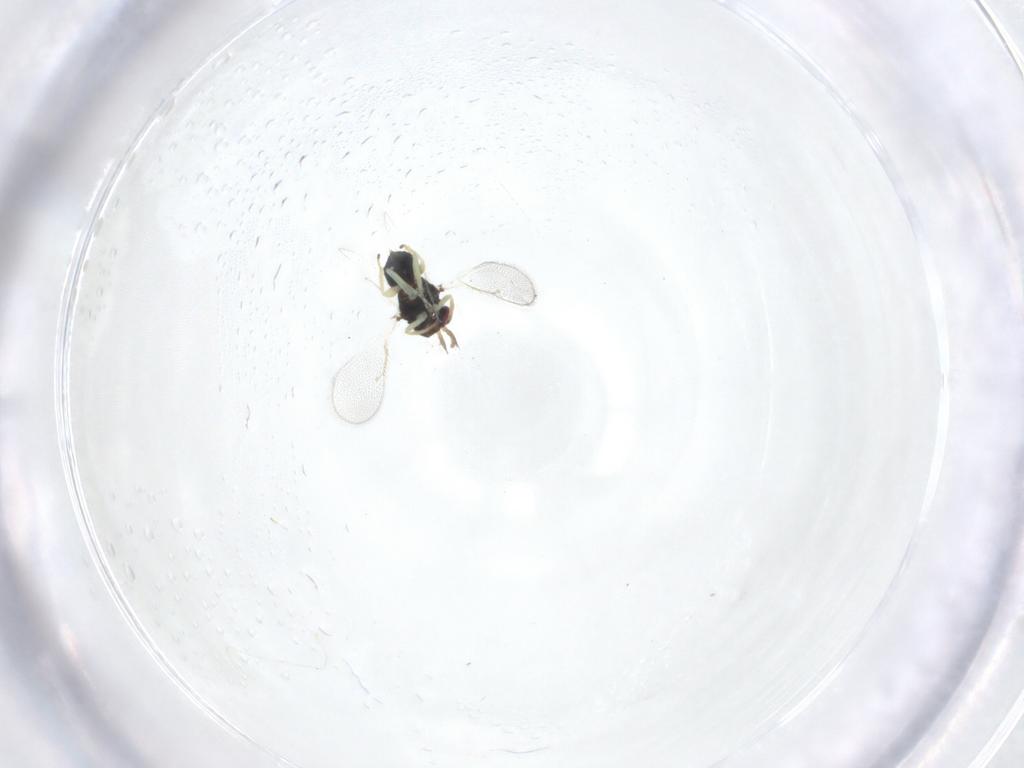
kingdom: Animalia
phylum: Arthropoda
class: Insecta
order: Hymenoptera
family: Eulophidae
